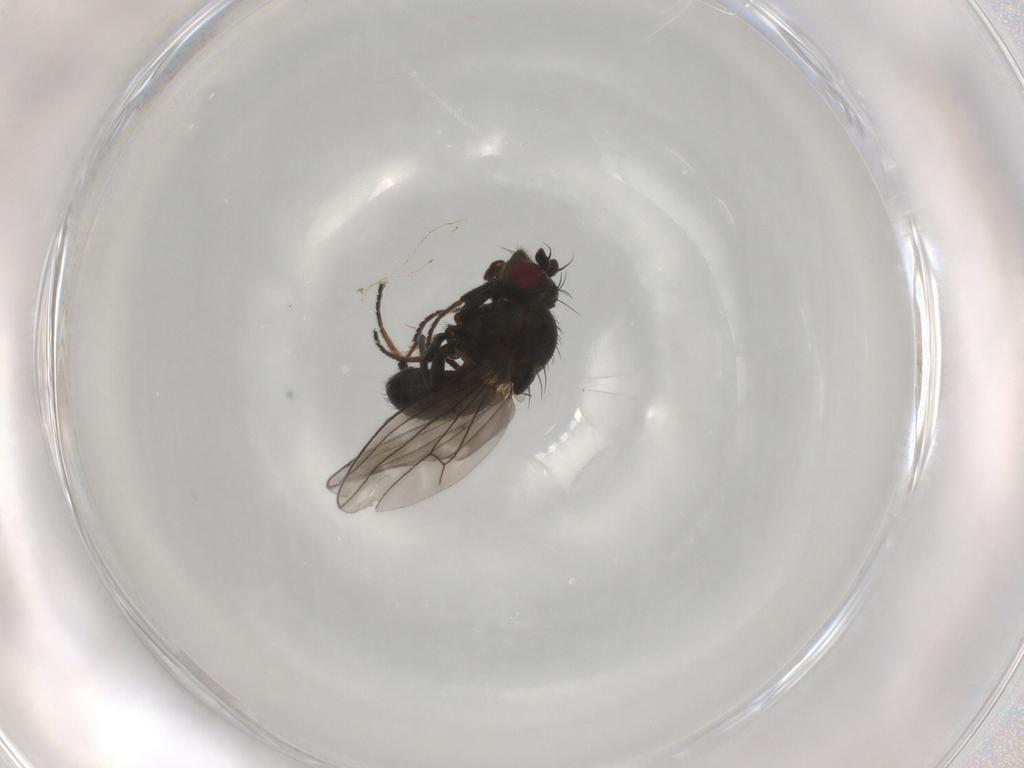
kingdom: Animalia
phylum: Arthropoda
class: Insecta
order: Diptera
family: Ephydridae
